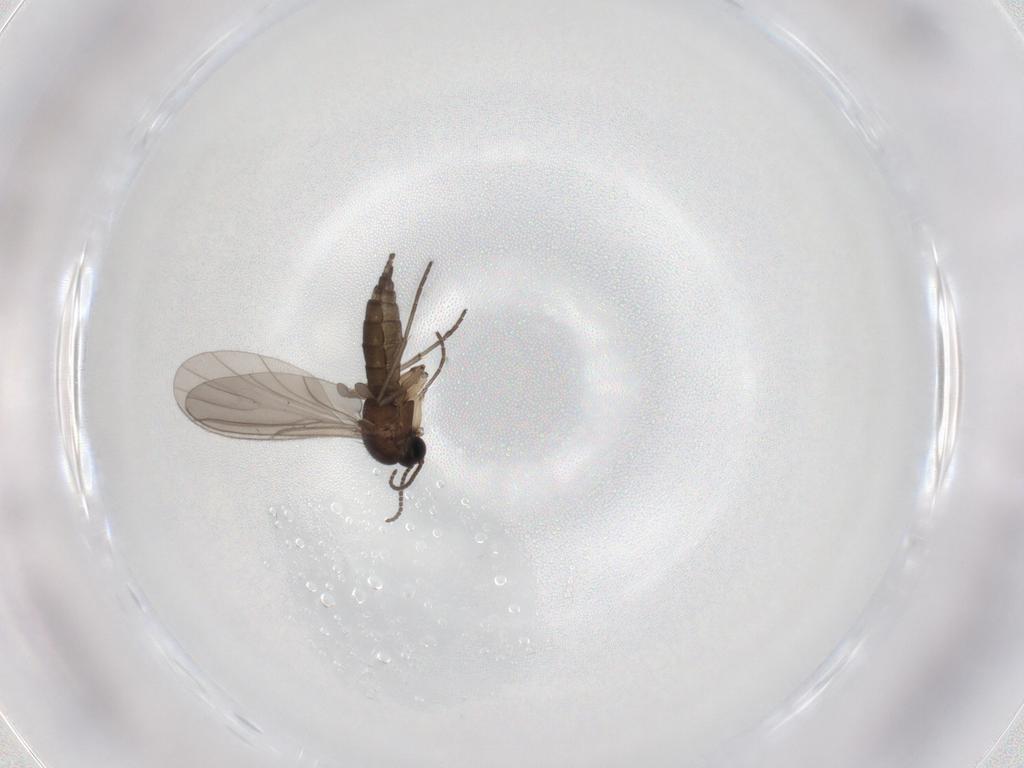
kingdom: Animalia
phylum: Arthropoda
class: Insecta
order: Diptera
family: Sciaridae
